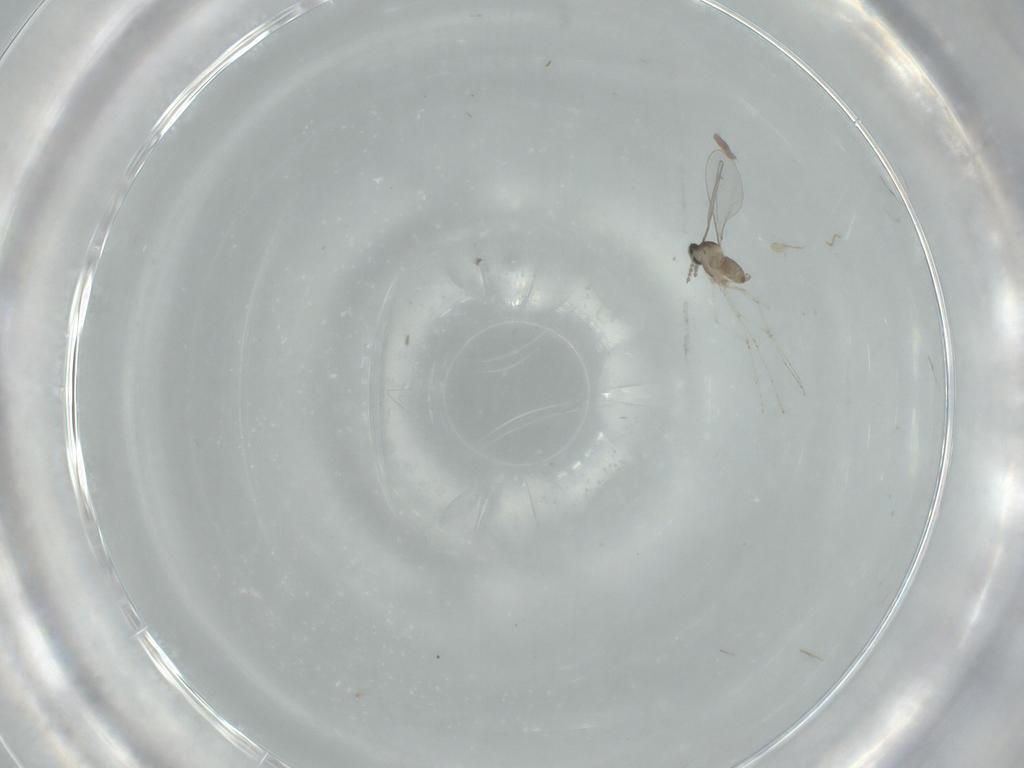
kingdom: Animalia
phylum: Arthropoda
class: Insecta
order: Diptera
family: Cecidomyiidae
